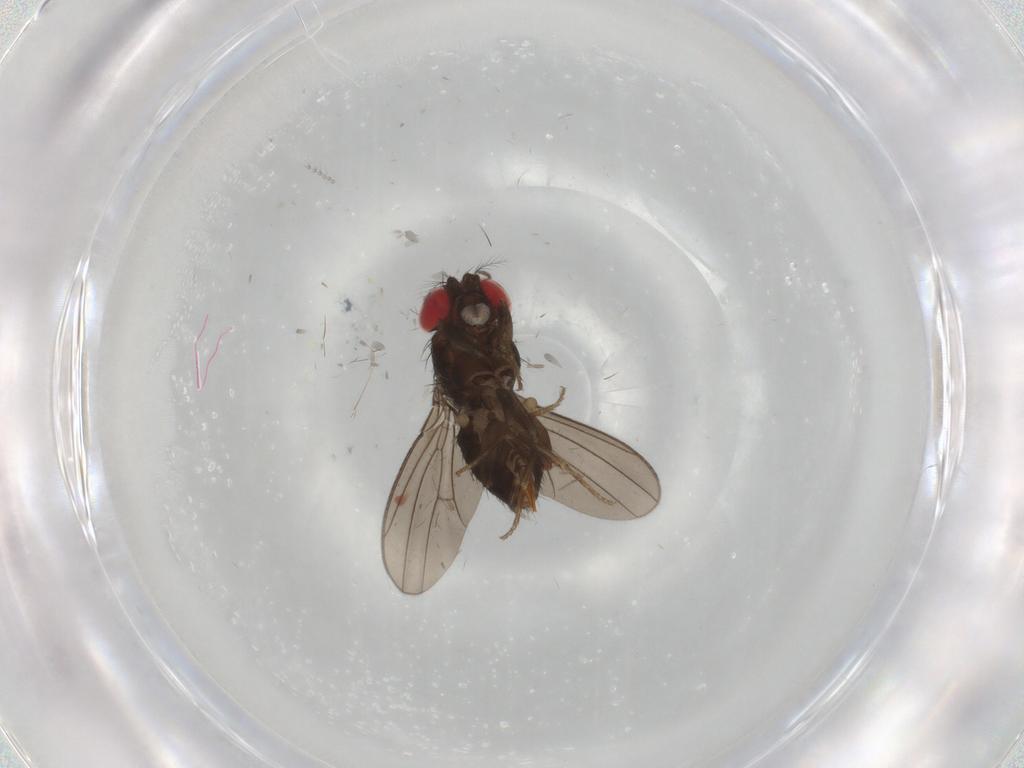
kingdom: Animalia
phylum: Arthropoda
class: Insecta
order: Diptera
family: Drosophilidae
